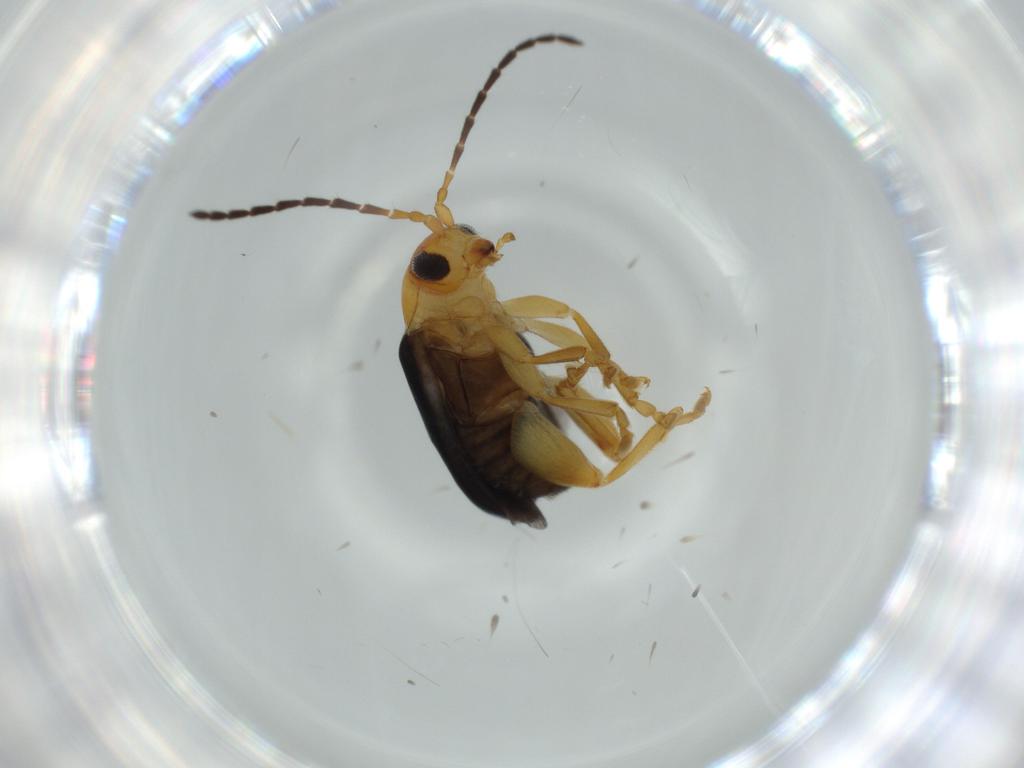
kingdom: Animalia
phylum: Arthropoda
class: Insecta
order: Coleoptera
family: Chrysomelidae
